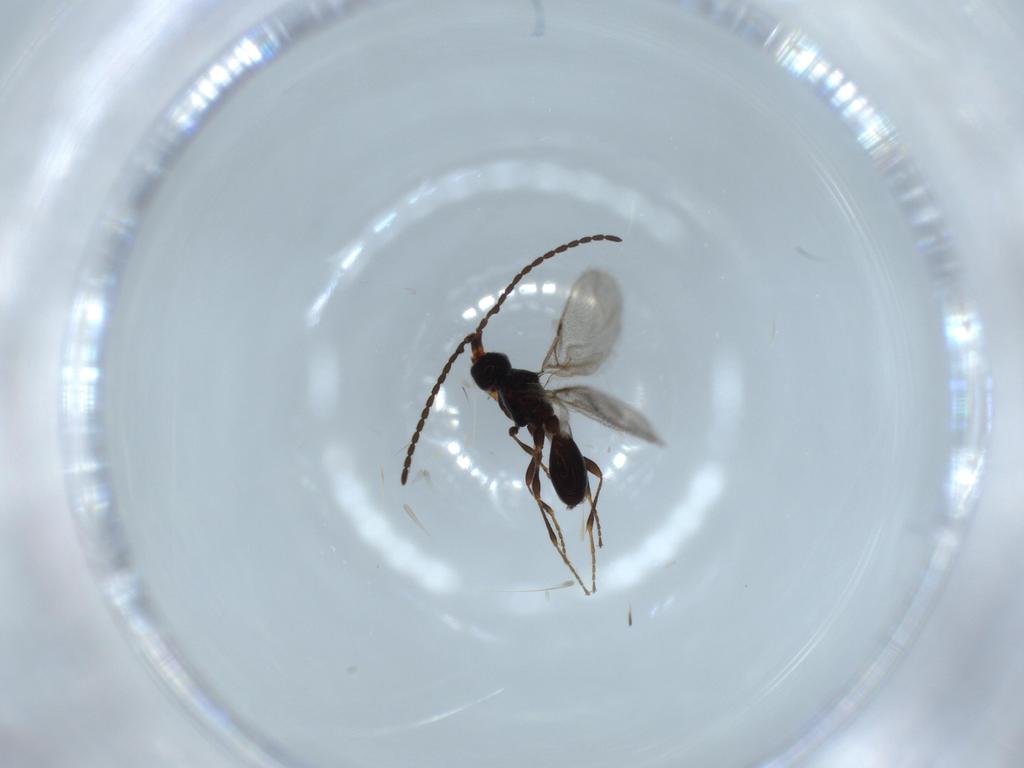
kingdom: Animalia
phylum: Arthropoda
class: Insecta
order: Hymenoptera
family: Diapriidae
